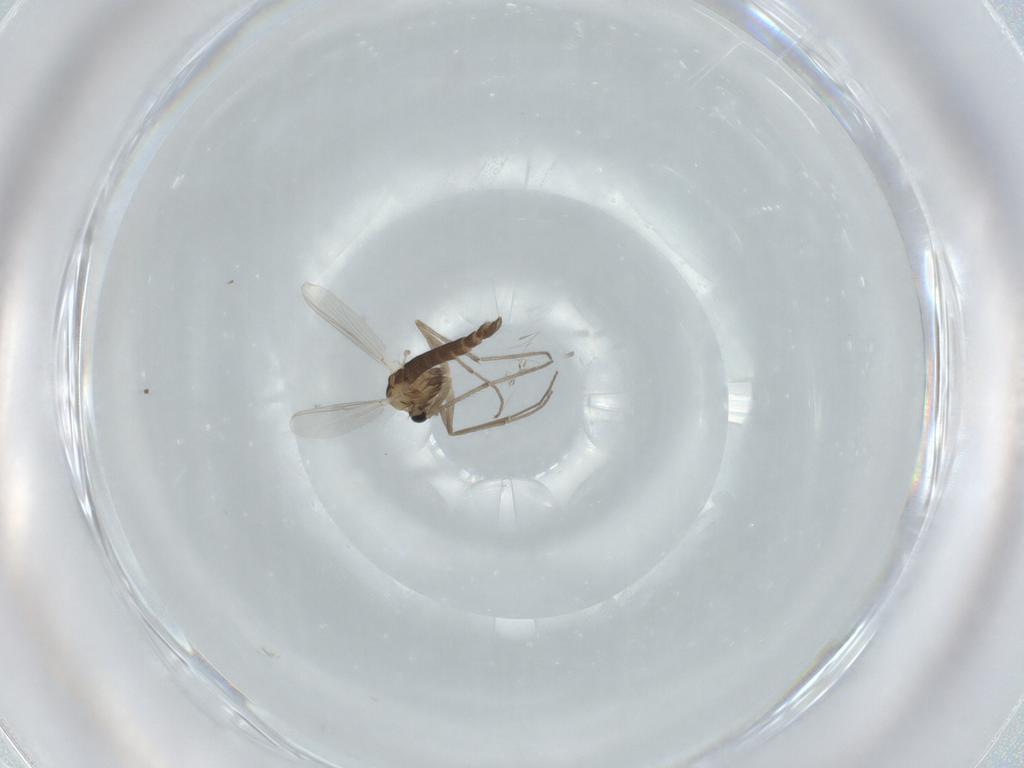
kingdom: Animalia
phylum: Arthropoda
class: Insecta
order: Diptera
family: Chironomidae
